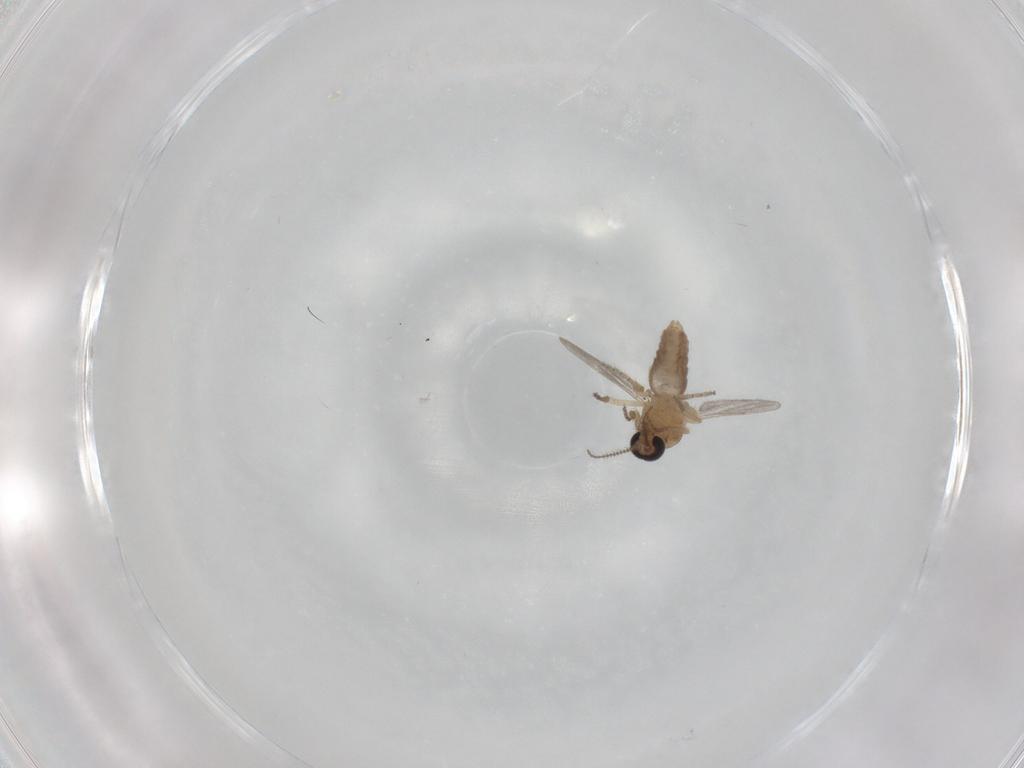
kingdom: Animalia
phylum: Arthropoda
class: Insecta
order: Diptera
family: Ceratopogonidae
